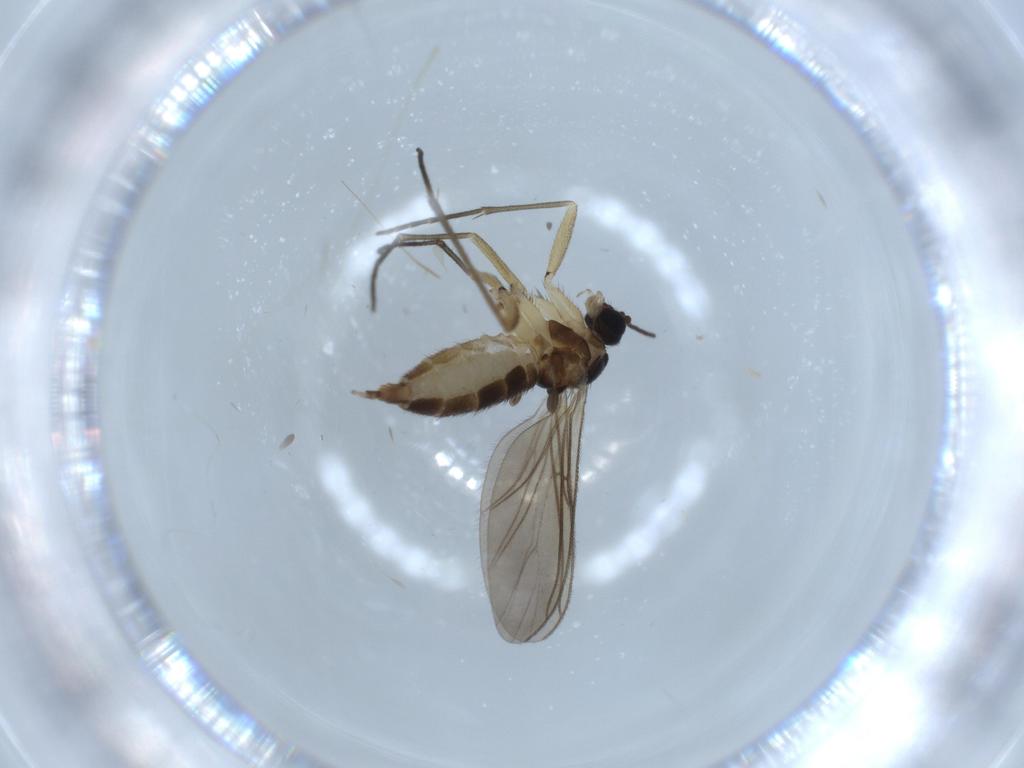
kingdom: Animalia
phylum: Arthropoda
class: Insecta
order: Diptera
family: Sciaridae
